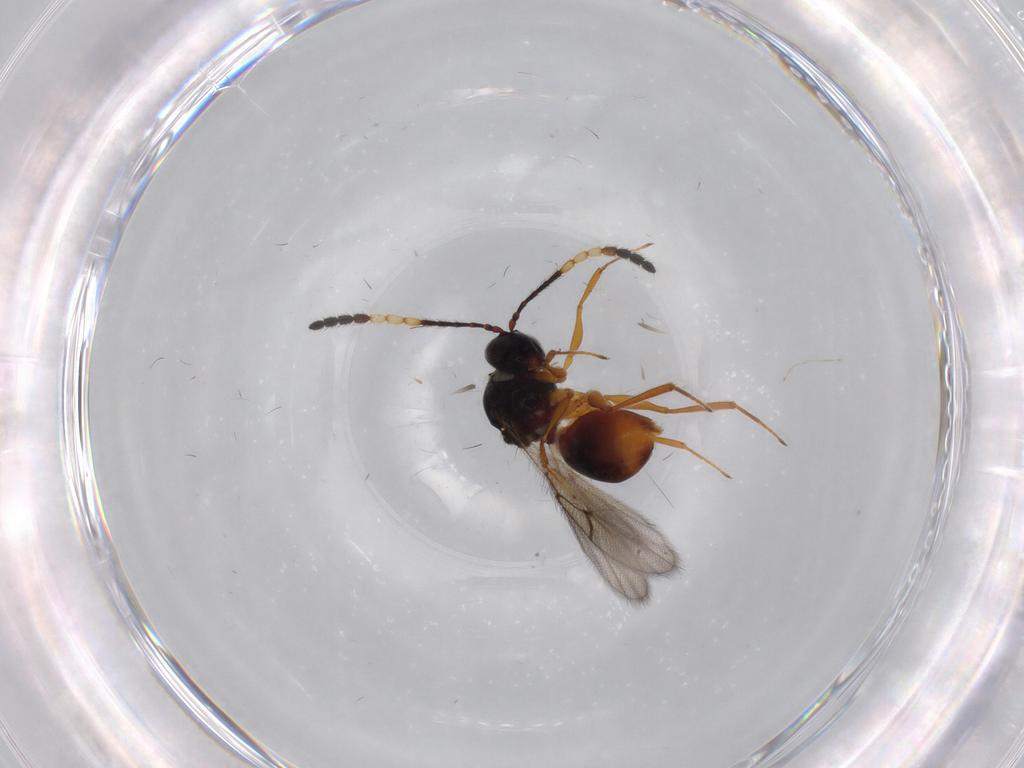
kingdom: Animalia
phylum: Arthropoda
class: Insecta
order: Hymenoptera
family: Figitidae
